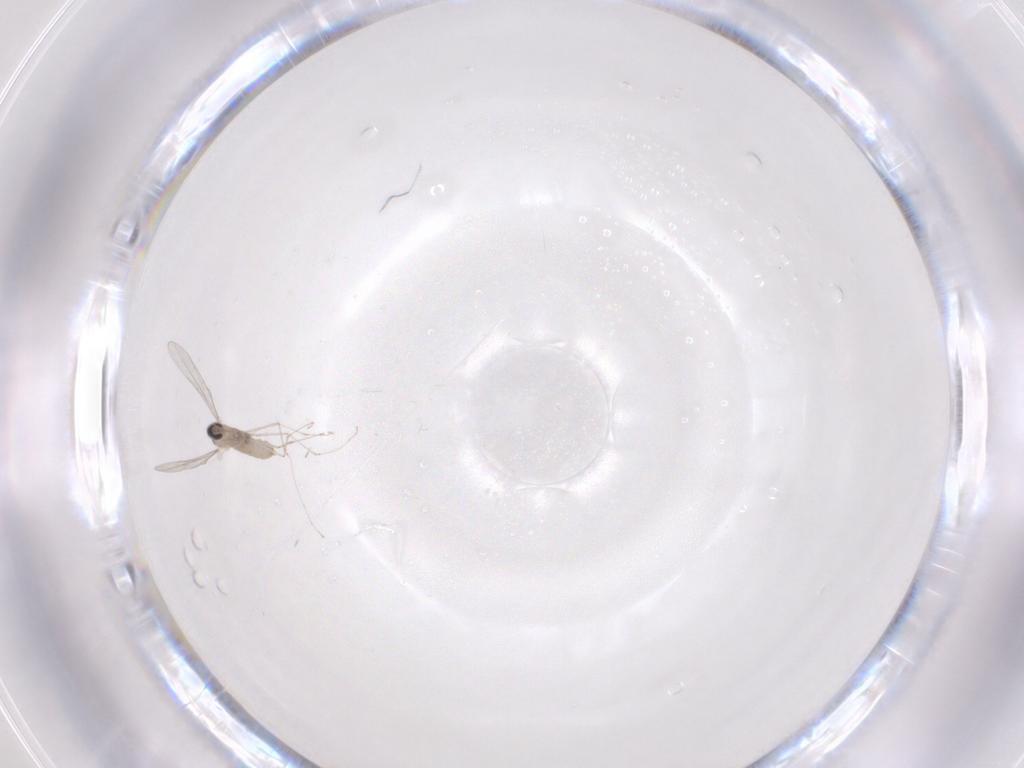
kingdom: Animalia
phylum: Arthropoda
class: Insecta
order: Diptera
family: Cecidomyiidae
